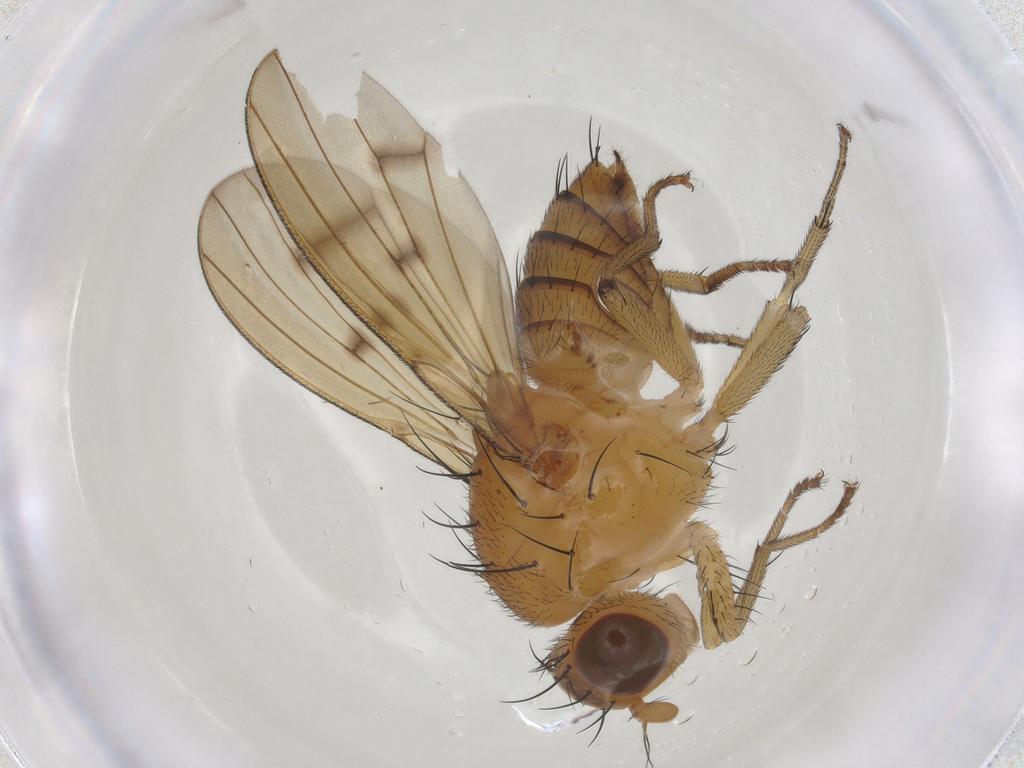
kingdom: Animalia
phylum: Arthropoda
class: Insecta
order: Diptera
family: Lauxaniidae
